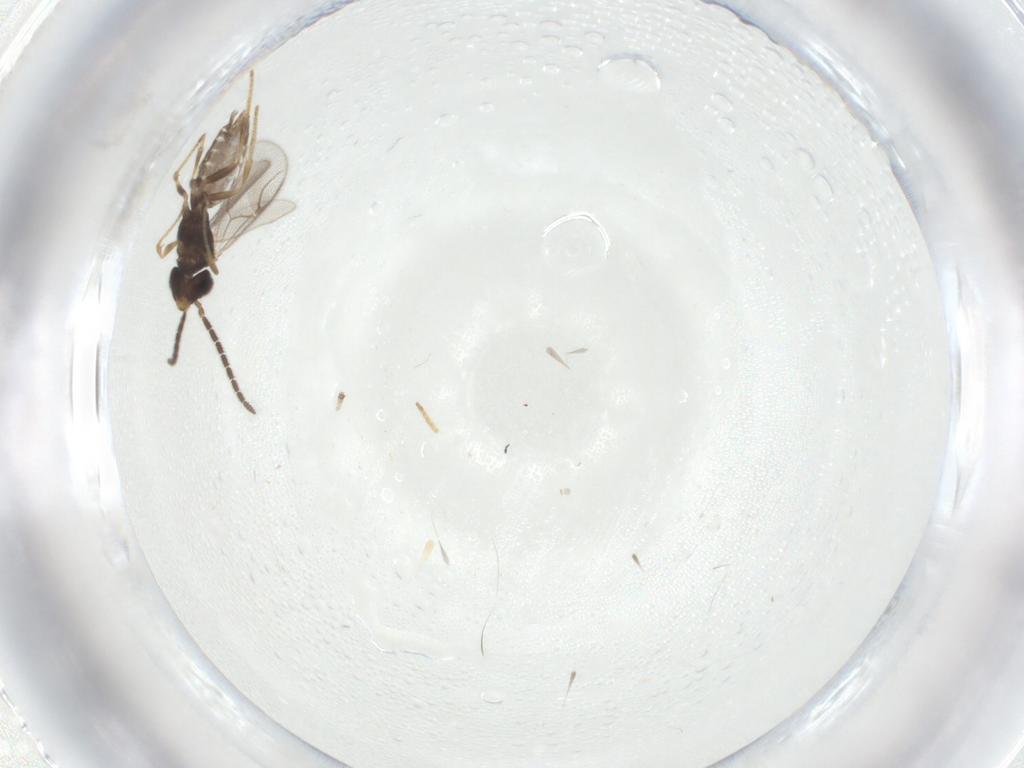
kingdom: Animalia
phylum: Arthropoda
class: Insecta
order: Hymenoptera
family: Dryinidae
